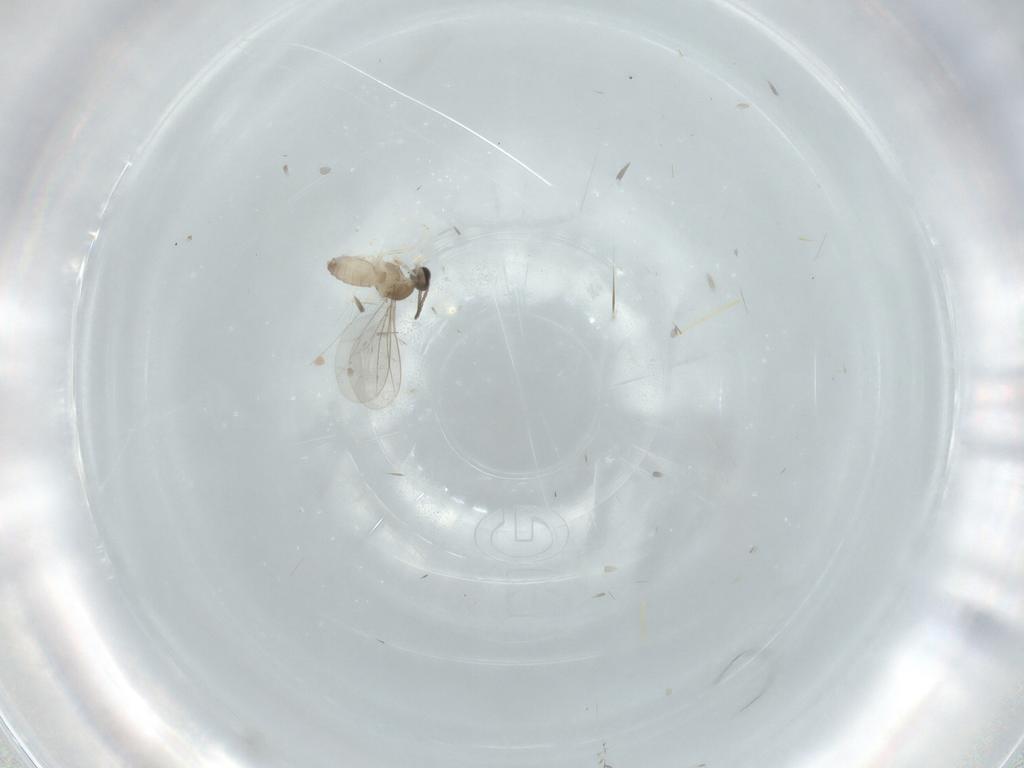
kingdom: Animalia
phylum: Arthropoda
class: Insecta
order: Diptera
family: Cecidomyiidae
